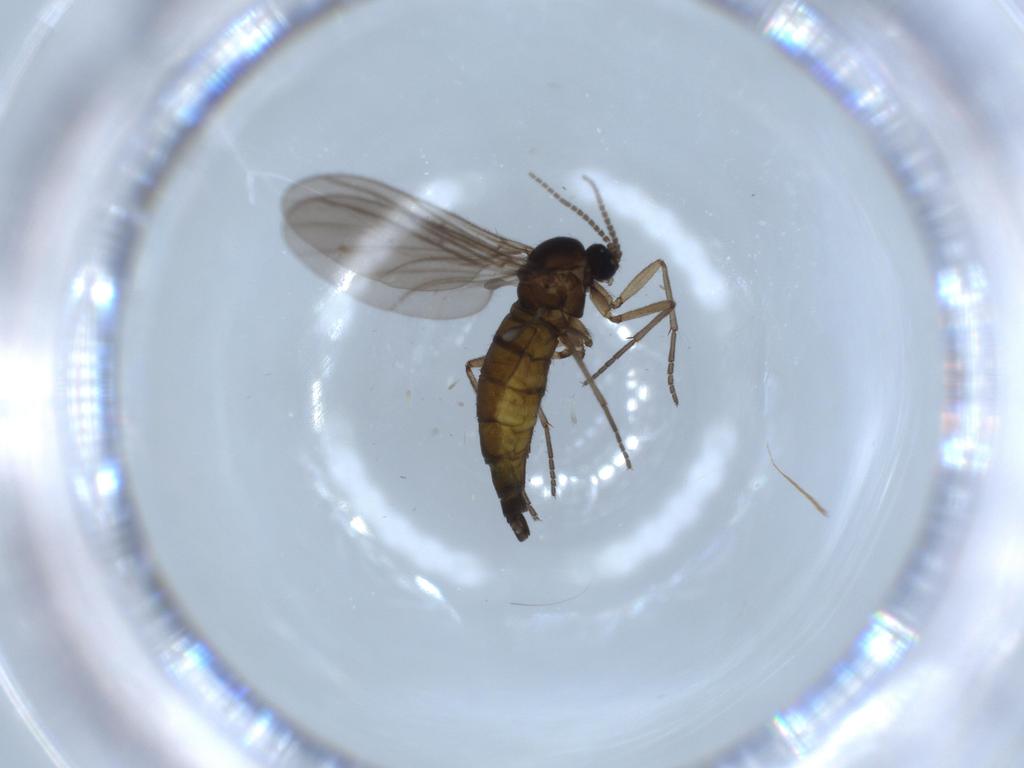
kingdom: Animalia
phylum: Arthropoda
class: Insecta
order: Diptera
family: Sciaridae
